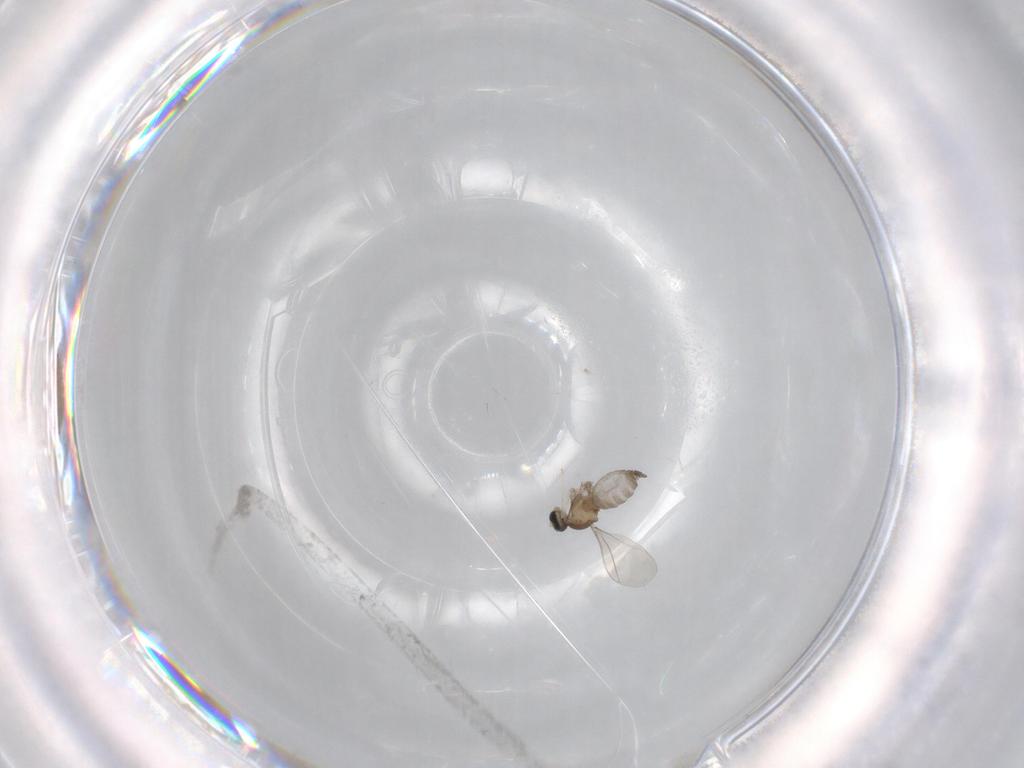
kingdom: Animalia
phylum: Arthropoda
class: Insecta
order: Diptera
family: Cecidomyiidae
